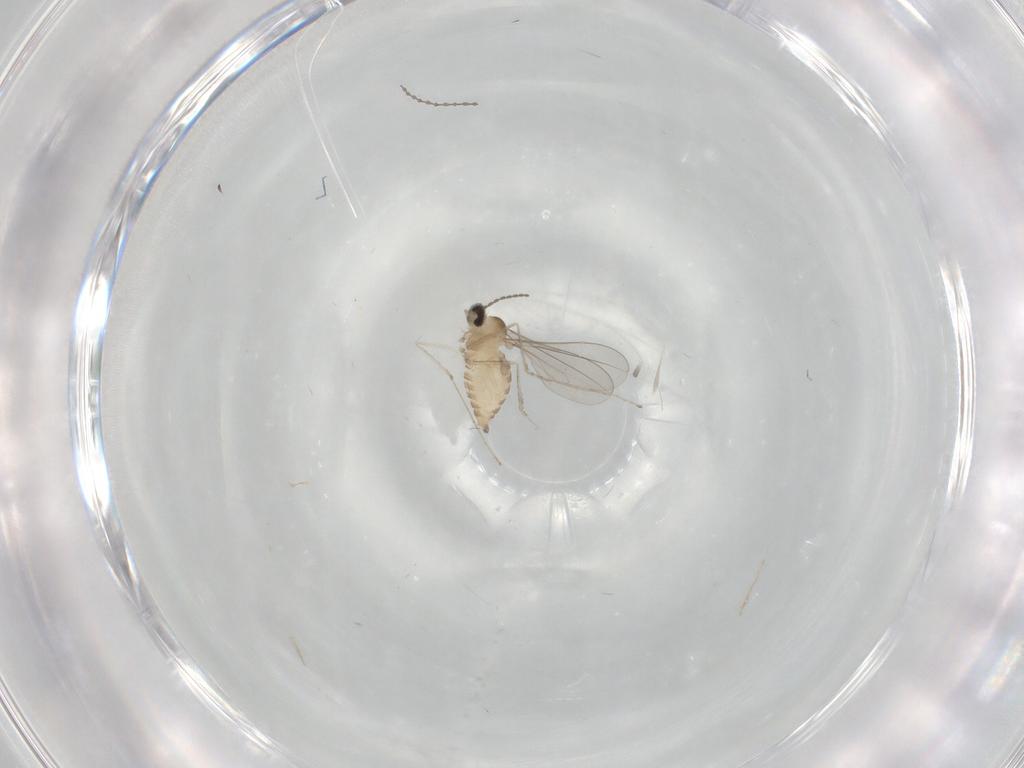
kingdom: Animalia
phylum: Arthropoda
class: Insecta
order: Diptera
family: Cecidomyiidae
